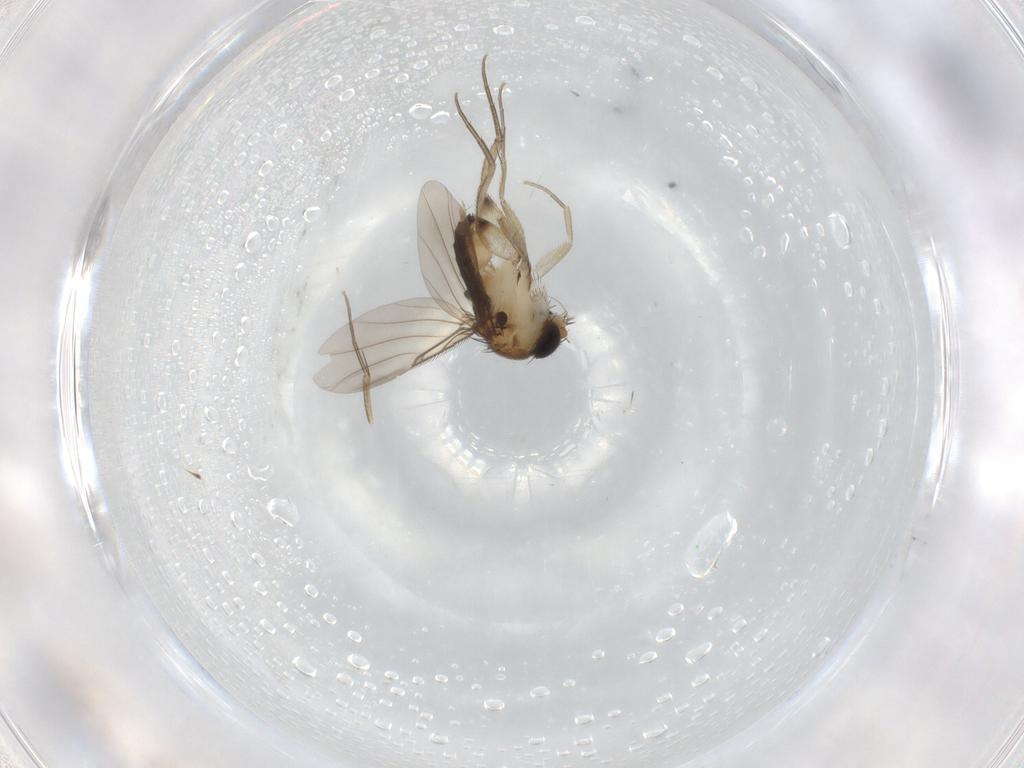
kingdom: Animalia
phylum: Arthropoda
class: Insecta
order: Diptera
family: Phoridae
